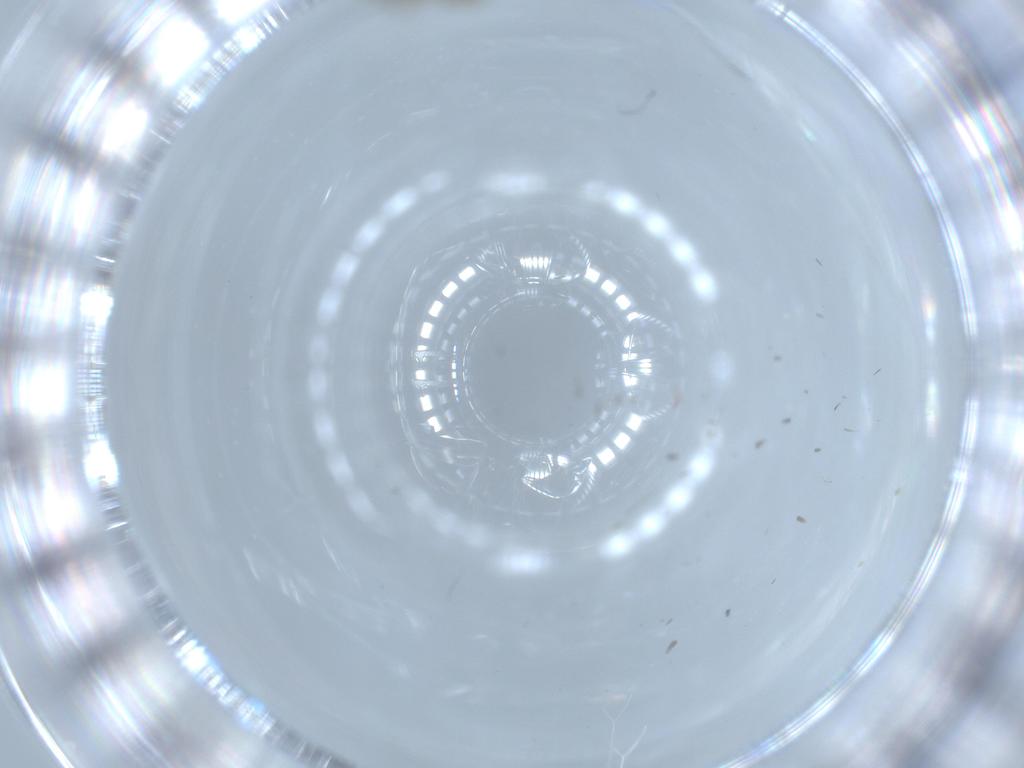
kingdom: Animalia
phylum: Arthropoda
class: Insecta
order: Diptera
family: Phoridae
